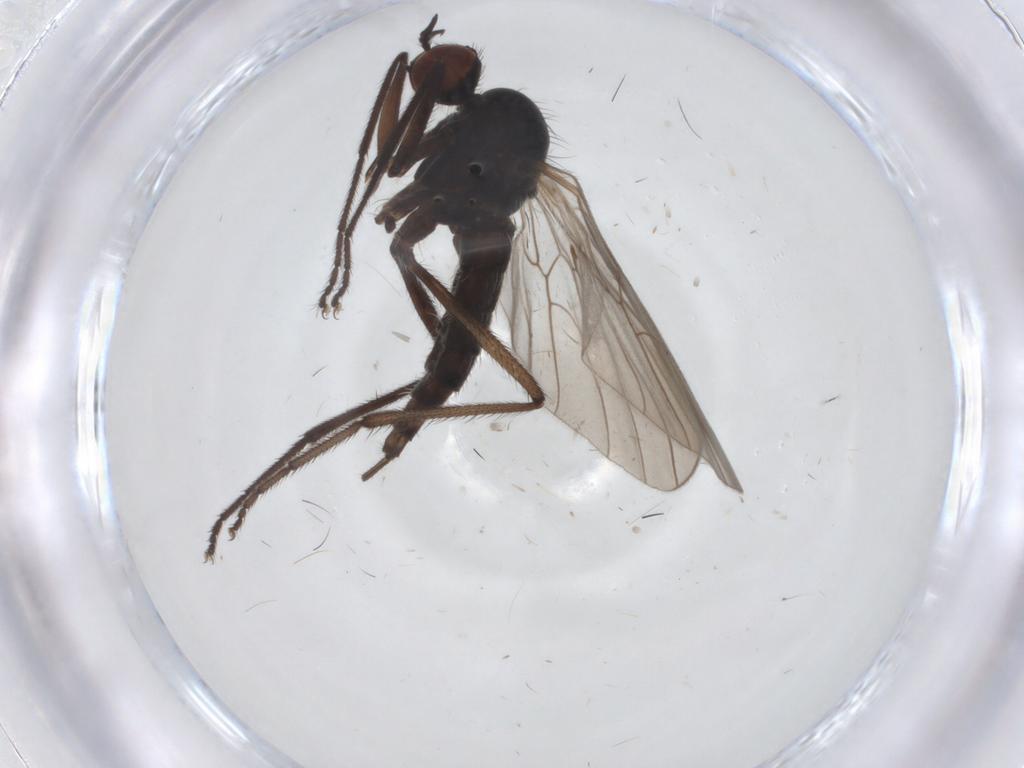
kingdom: Animalia
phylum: Arthropoda
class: Insecta
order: Diptera
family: Empididae
